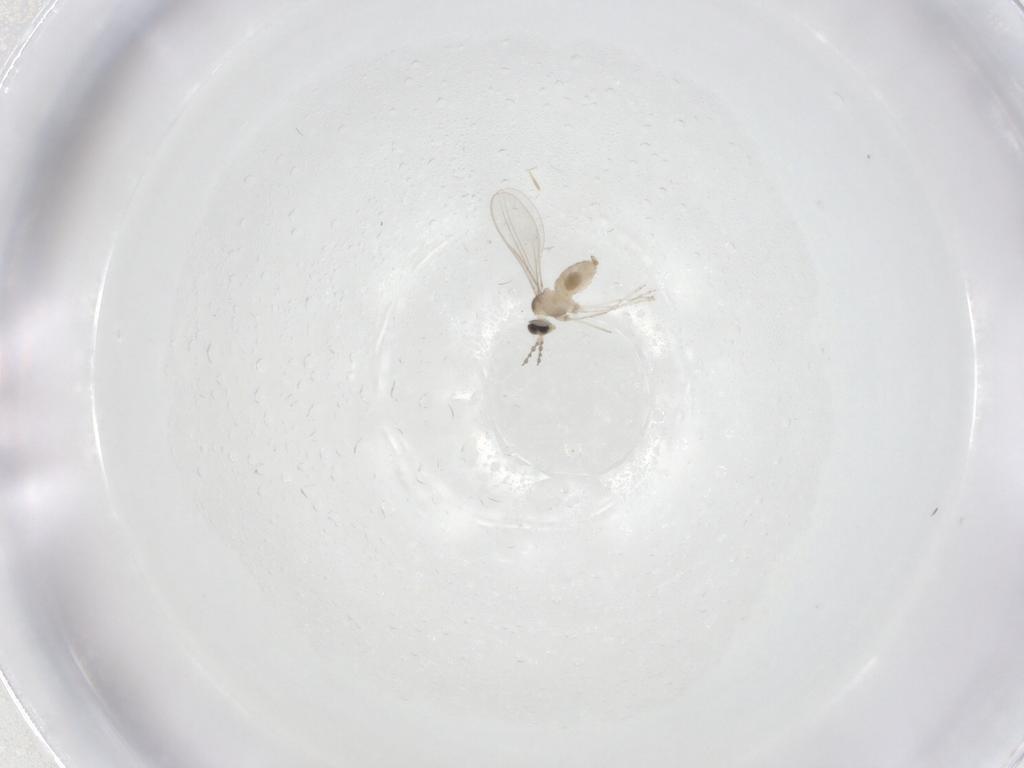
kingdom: Animalia
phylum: Arthropoda
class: Insecta
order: Diptera
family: Cecidomyiidae
